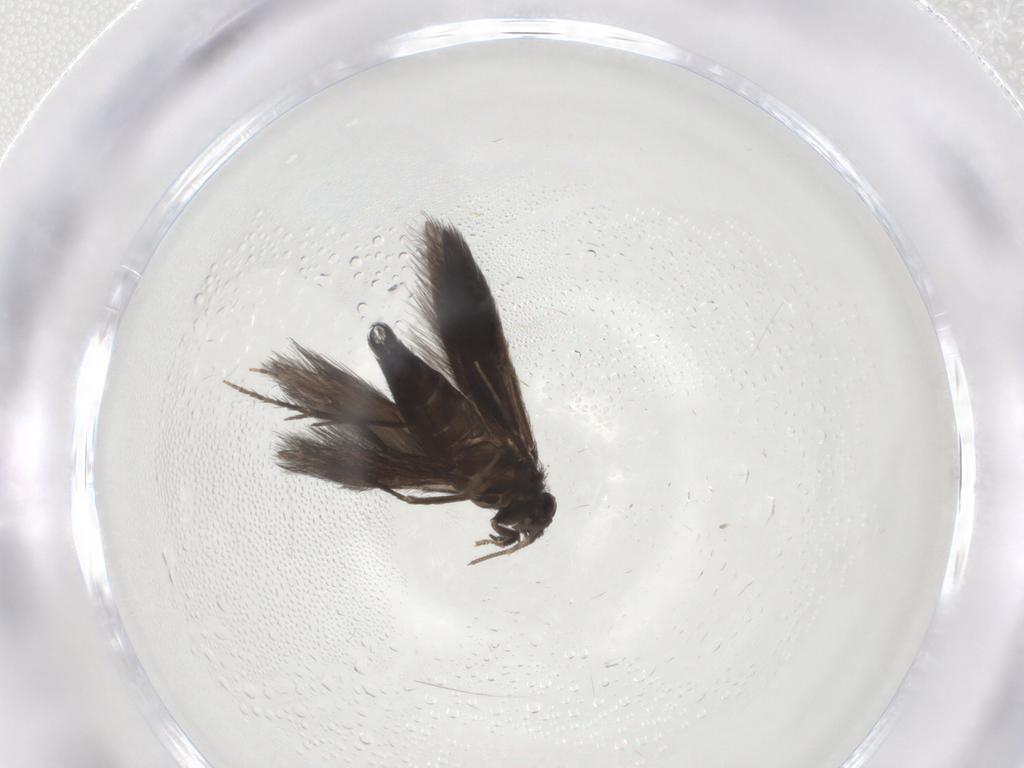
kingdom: Animalia
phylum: Arthropoda
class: Insecta
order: Trichoptera
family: Hydroptilidae
